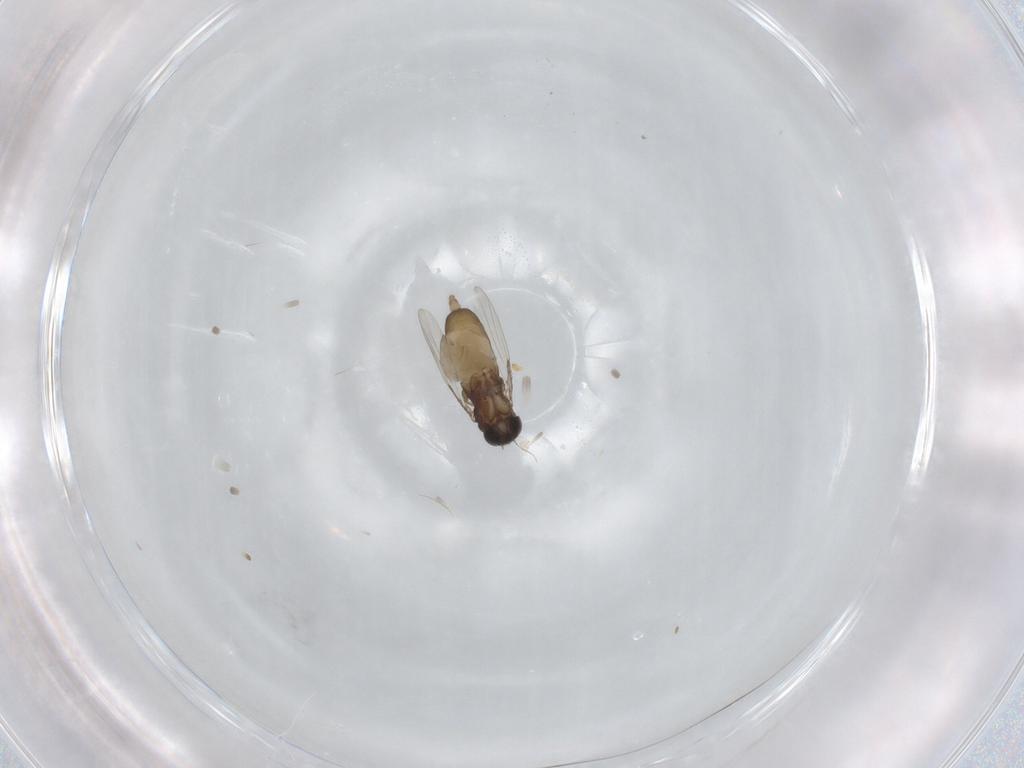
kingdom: Animalia
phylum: Arthropoda
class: Insecta
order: Diptera
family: Phoridae
